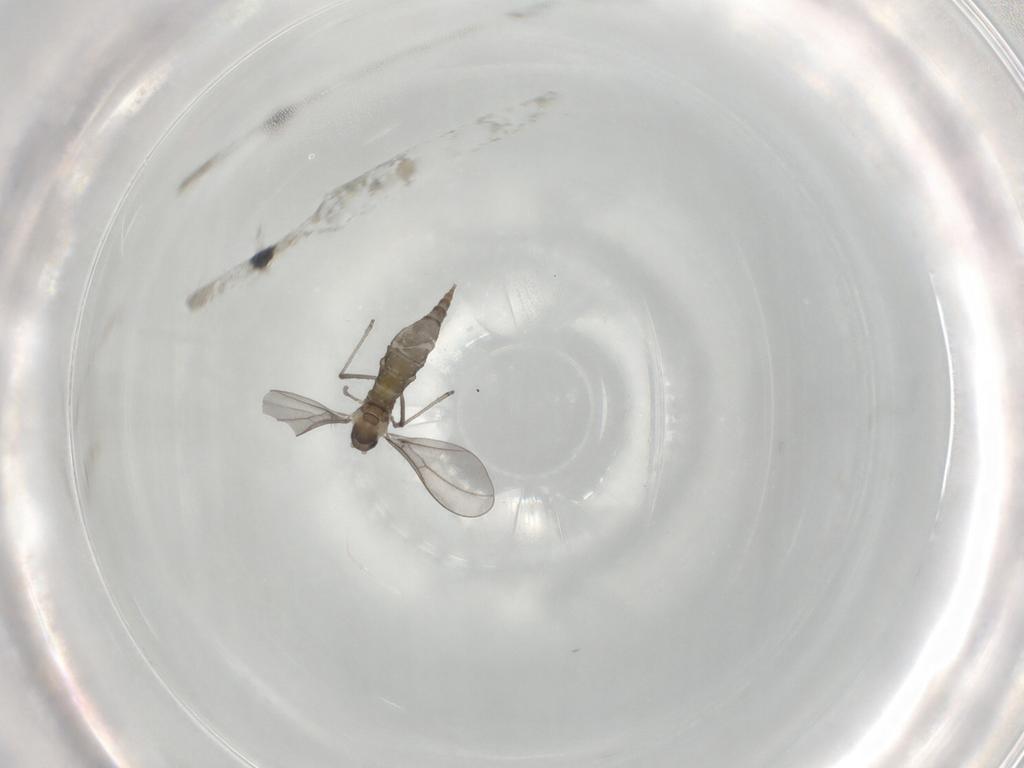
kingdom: Animalia
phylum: Arthropoda
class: Insecta
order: Diptera
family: Cecidomyiidae
